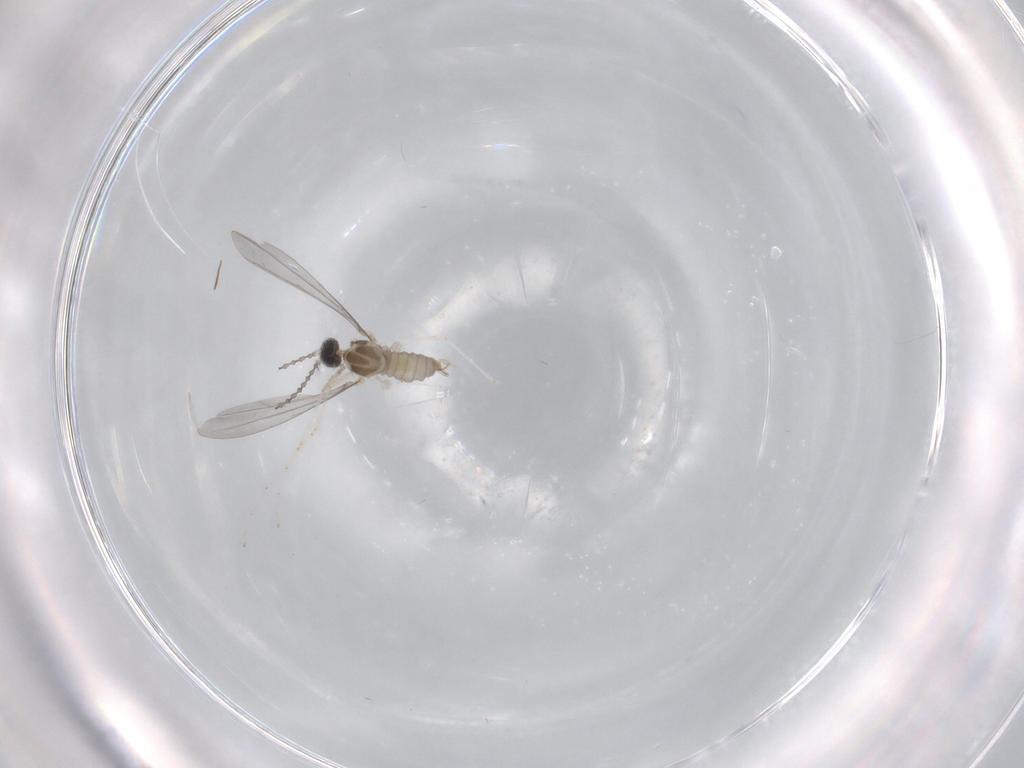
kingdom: Animalia
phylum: Arthropoda
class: Insecta
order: Diptera
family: Cecidomyiidae
